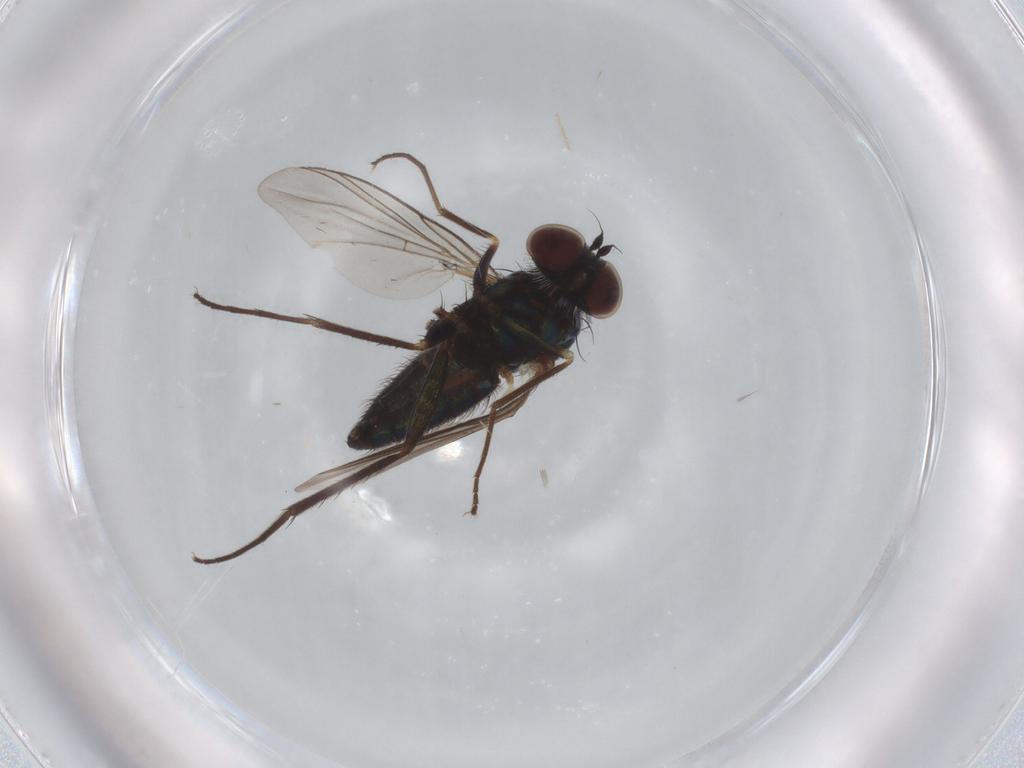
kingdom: Animalia
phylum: Arthropoda
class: Insecta
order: Diptera
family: Dolichopodidae
